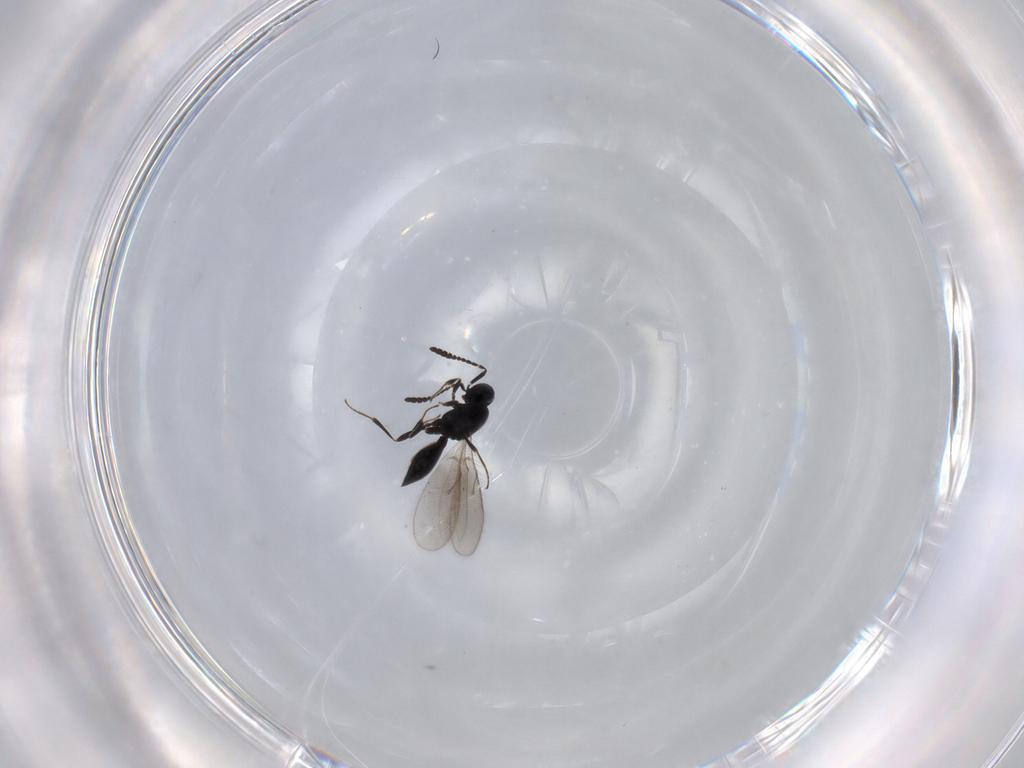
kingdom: Animalia
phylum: Arthropoda
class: Insecta
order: Hymenoptera
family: Scelionidae
